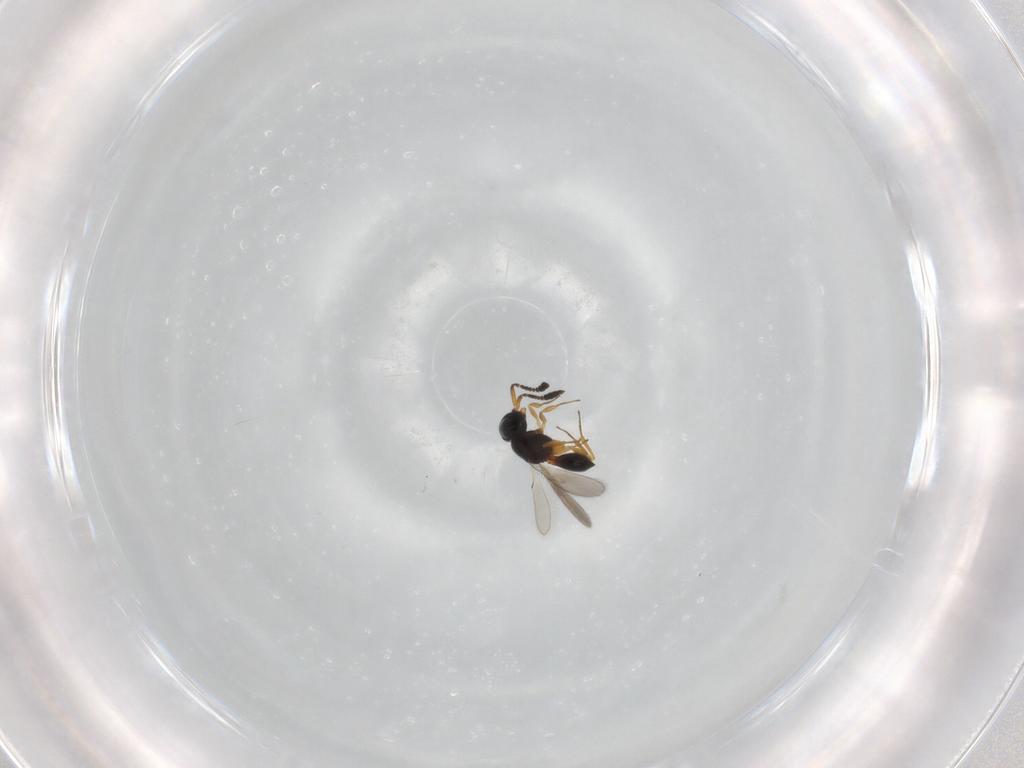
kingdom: Animalia
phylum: Arthropoda
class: Insecta
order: Hymenoptera
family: Scelionidae
